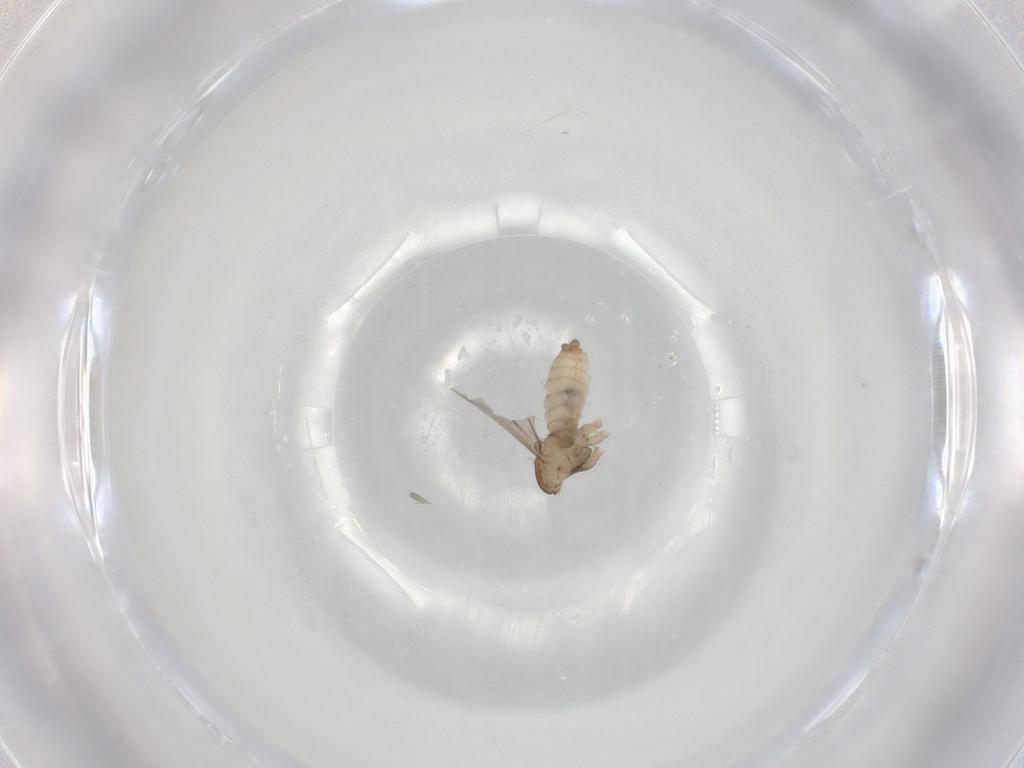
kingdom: Animalia
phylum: Arthropoda
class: Insecta
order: Diptera
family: Cecidomyiidae
